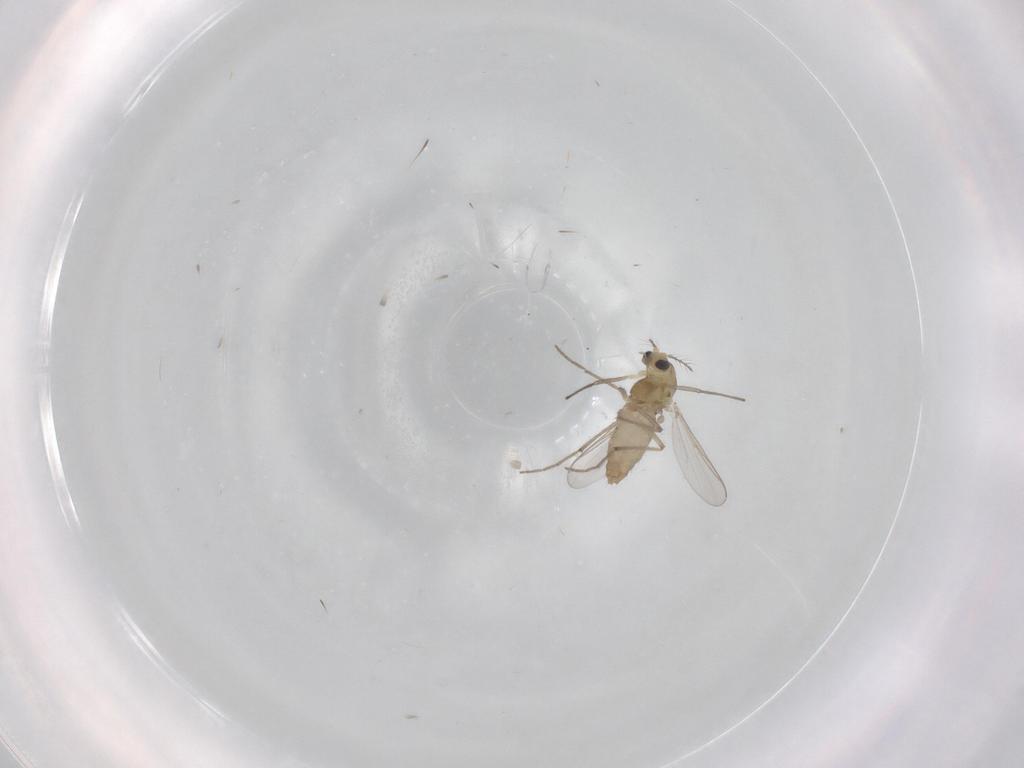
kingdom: Animalia
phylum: Arthropoda
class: Insecta
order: Diptera
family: Chironomidae
